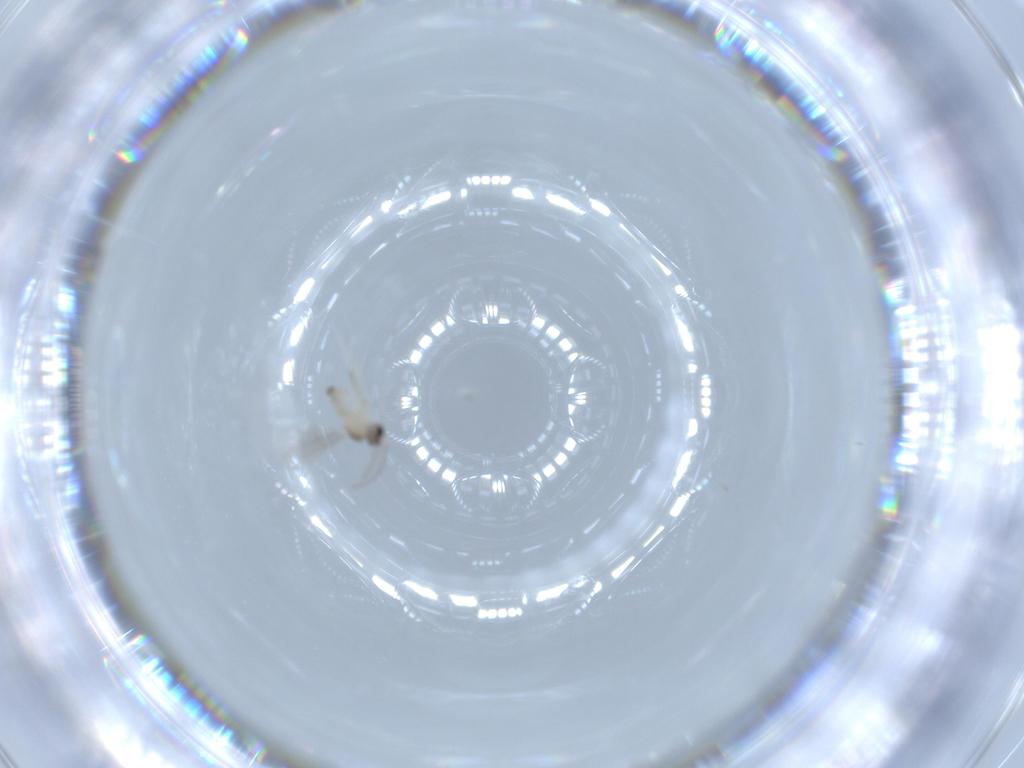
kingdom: Animalia
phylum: Arthropoda
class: Insecta
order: Diptera
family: Cecidomyiidae
